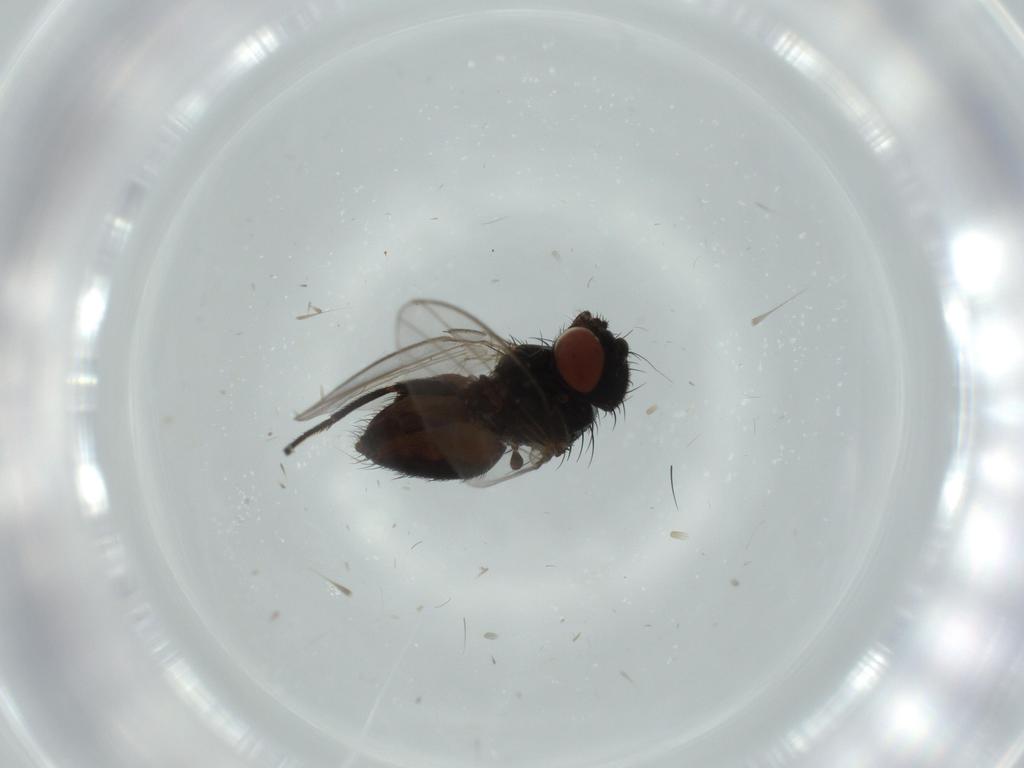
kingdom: Animalia
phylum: Arthropoda
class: Insecta
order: Diptera
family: Milichiidae
